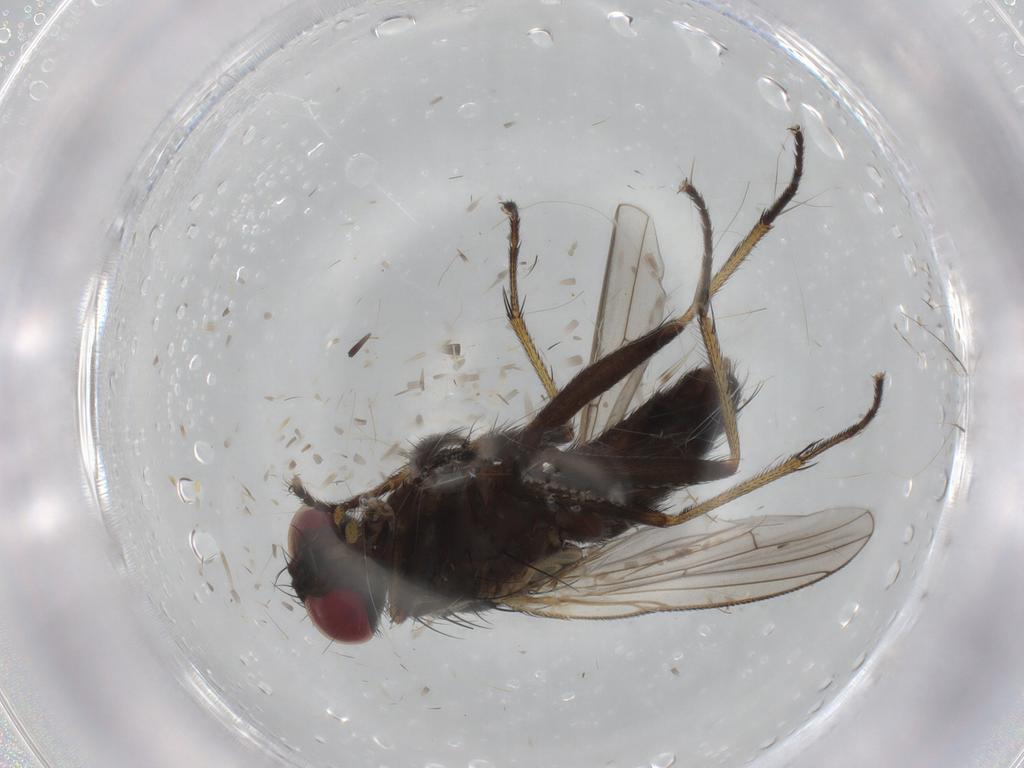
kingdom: Animalia
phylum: Arthropoda
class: Insecta
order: Diptera
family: Muscidae
